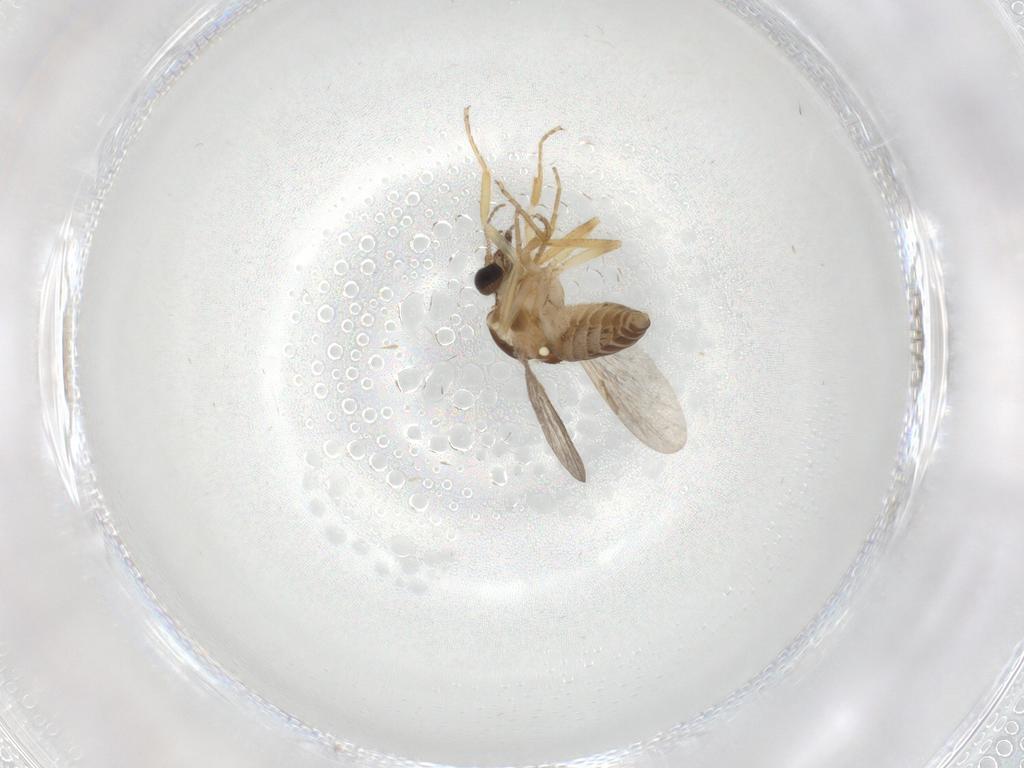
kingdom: Animalia
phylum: Arthropoda
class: Insecta
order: Diptera
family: Ceratopogonidae
